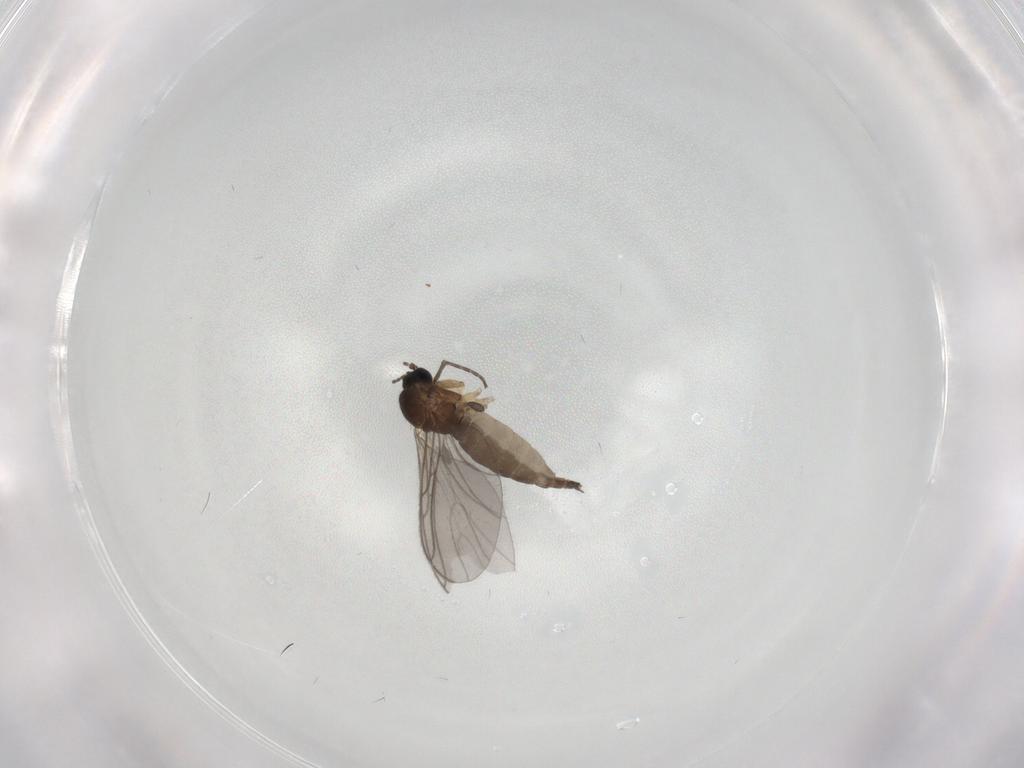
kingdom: Animalia
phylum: Arthropoda
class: Insecta
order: Diptera
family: Sciaridae
